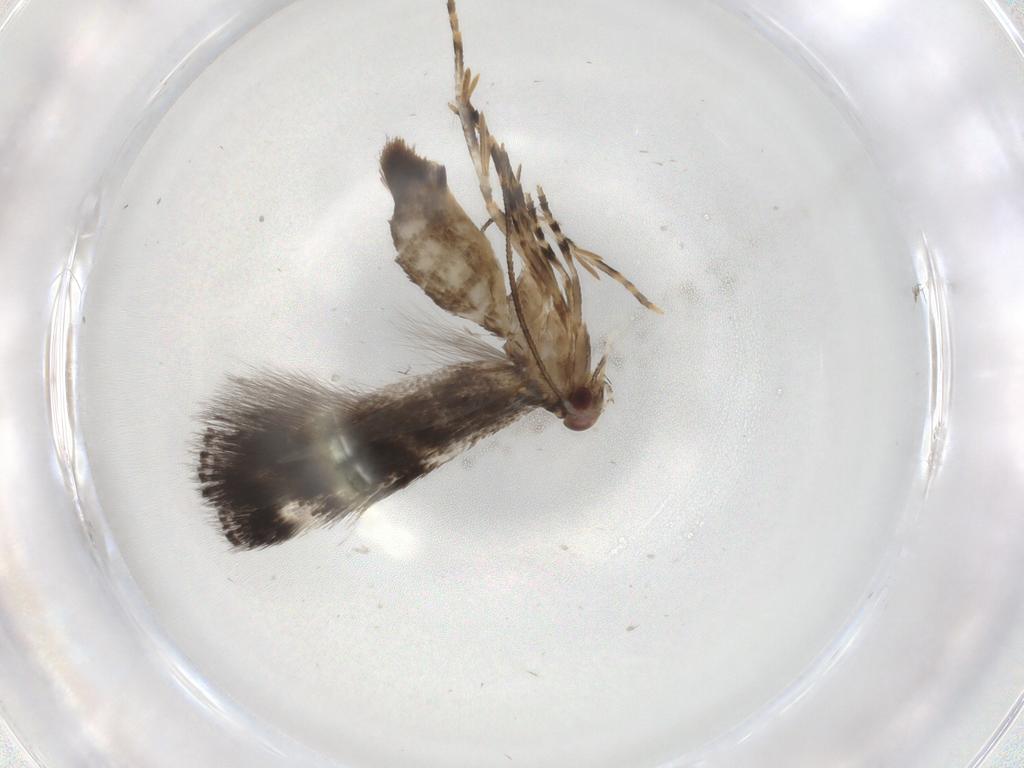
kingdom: Animalia
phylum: Arthropoda
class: Insecta
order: Lepidoptera
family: Elachistidae
